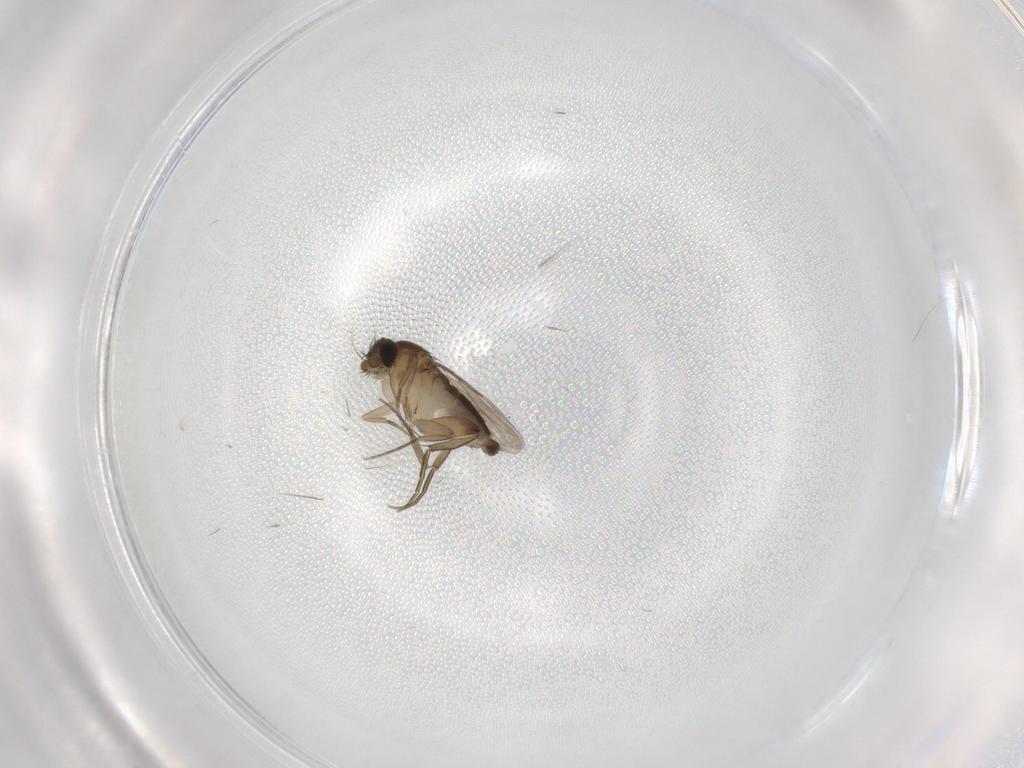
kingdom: Animalia
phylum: Arthropoda
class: Insecta
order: Diptera
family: Phoridae
